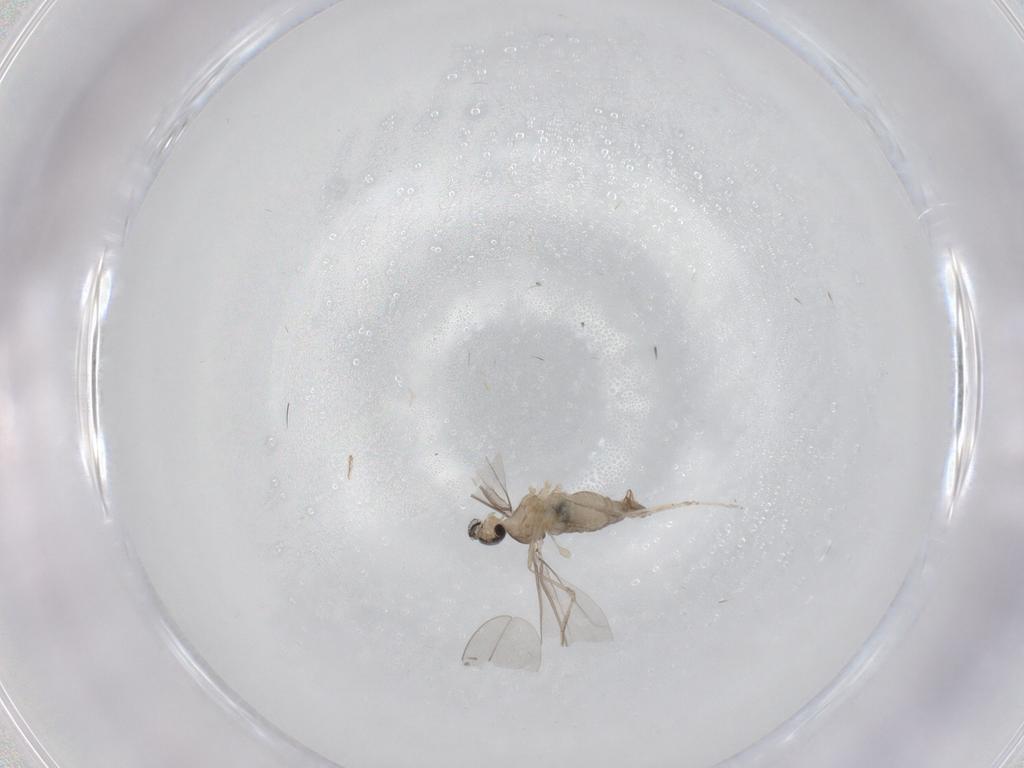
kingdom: Animalia
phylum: Arthropoda
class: Insecta
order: Diptera
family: Cecidomyiidae
